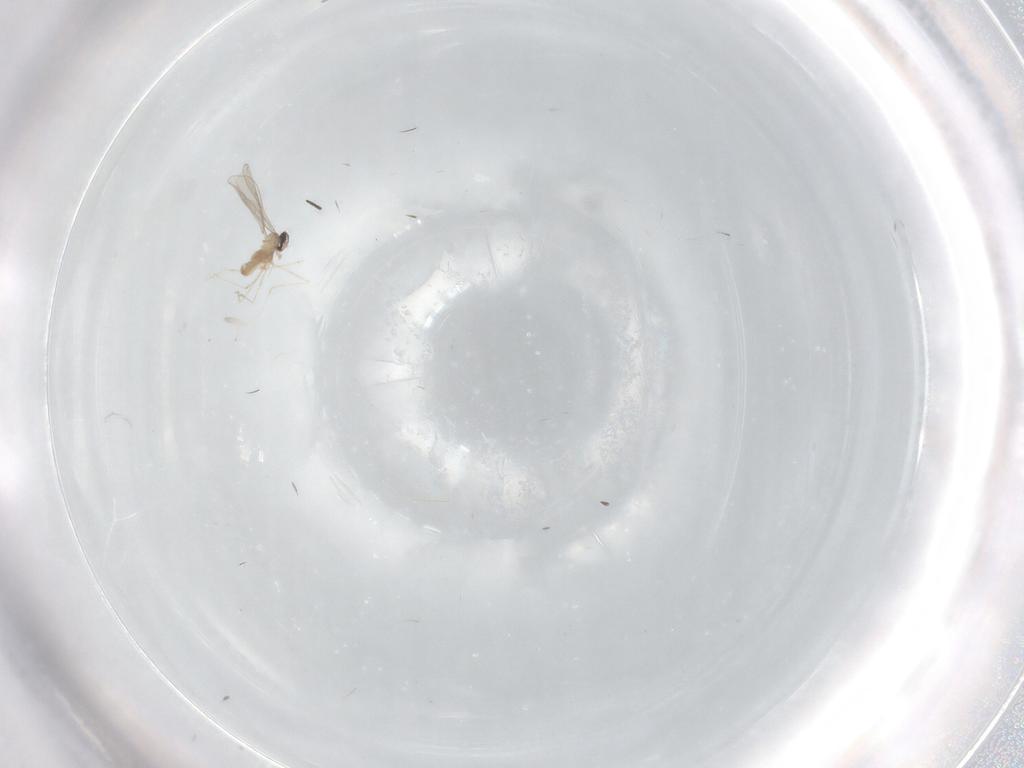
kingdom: Animalia
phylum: Arthropoda
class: Insecta
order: Diptera
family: Cecidomyiidae
